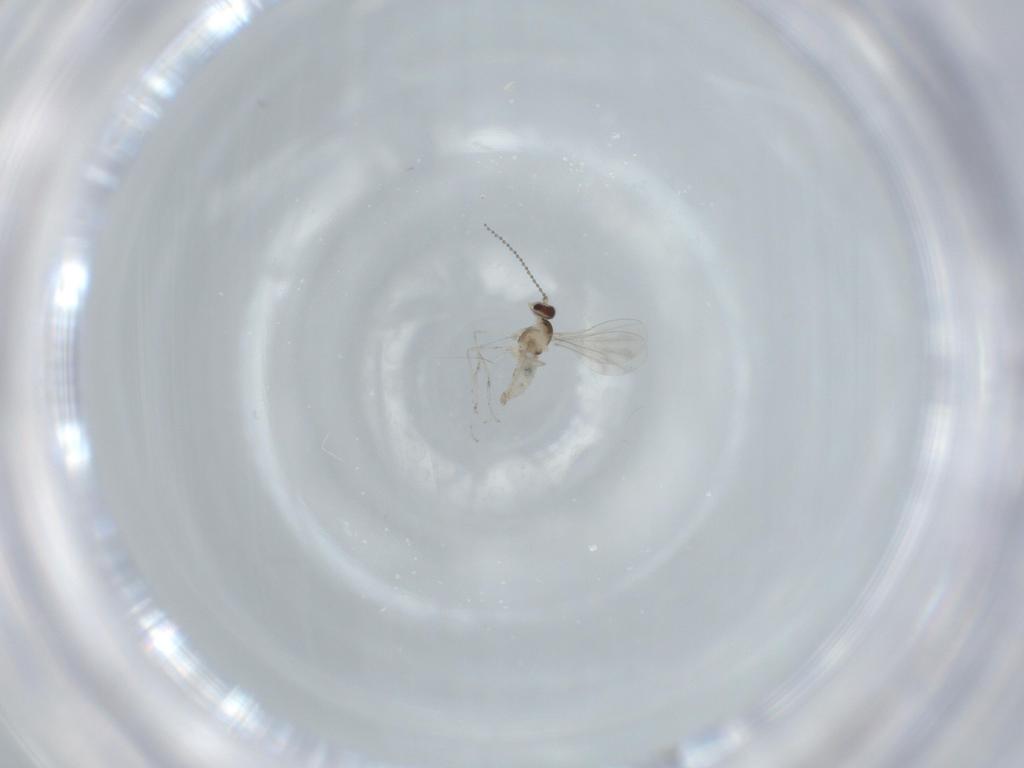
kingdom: Animalia
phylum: Arthropoda
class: Insecta
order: Diptera
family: Cecidomyiidae
